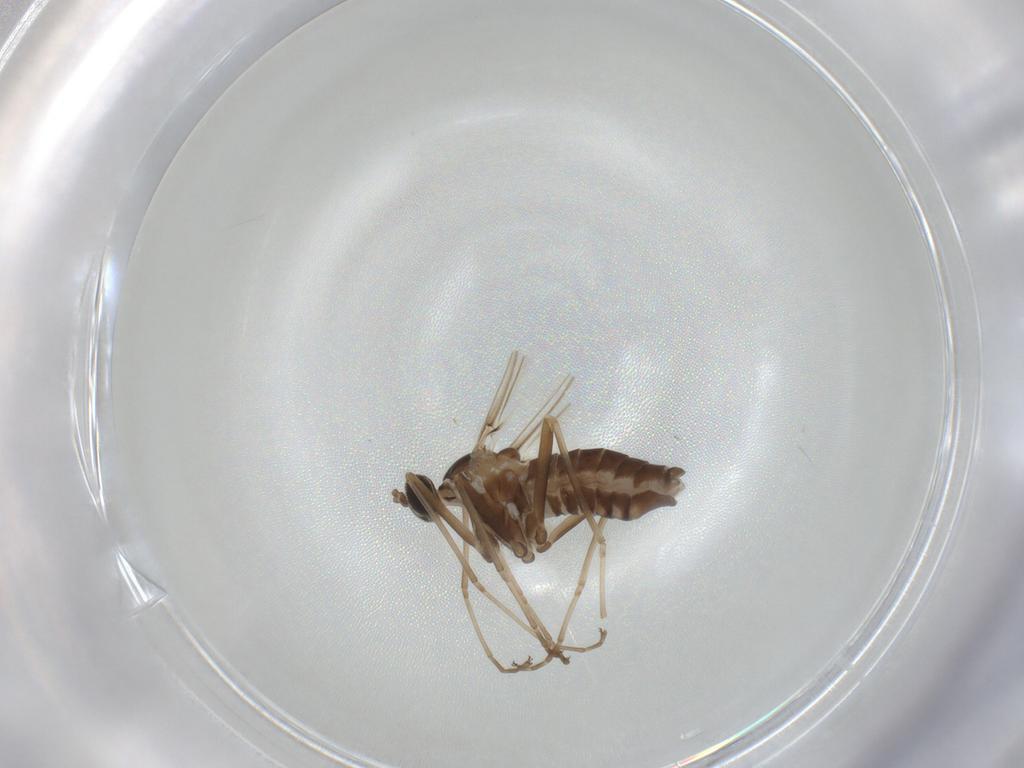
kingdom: Animalia
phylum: Arthropoda
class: Insecta
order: Diptera
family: Cecidomyiidae
